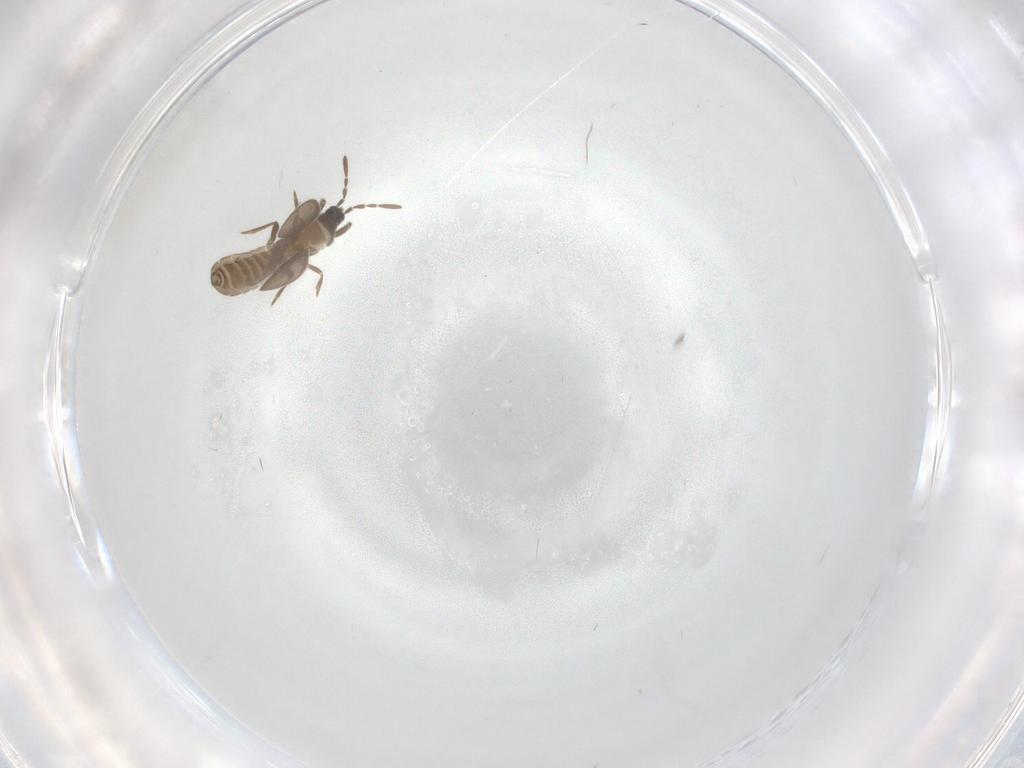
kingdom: Animalia
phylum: Arthropoda
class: Insecta
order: Hemiptera
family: Enicocephalidae
